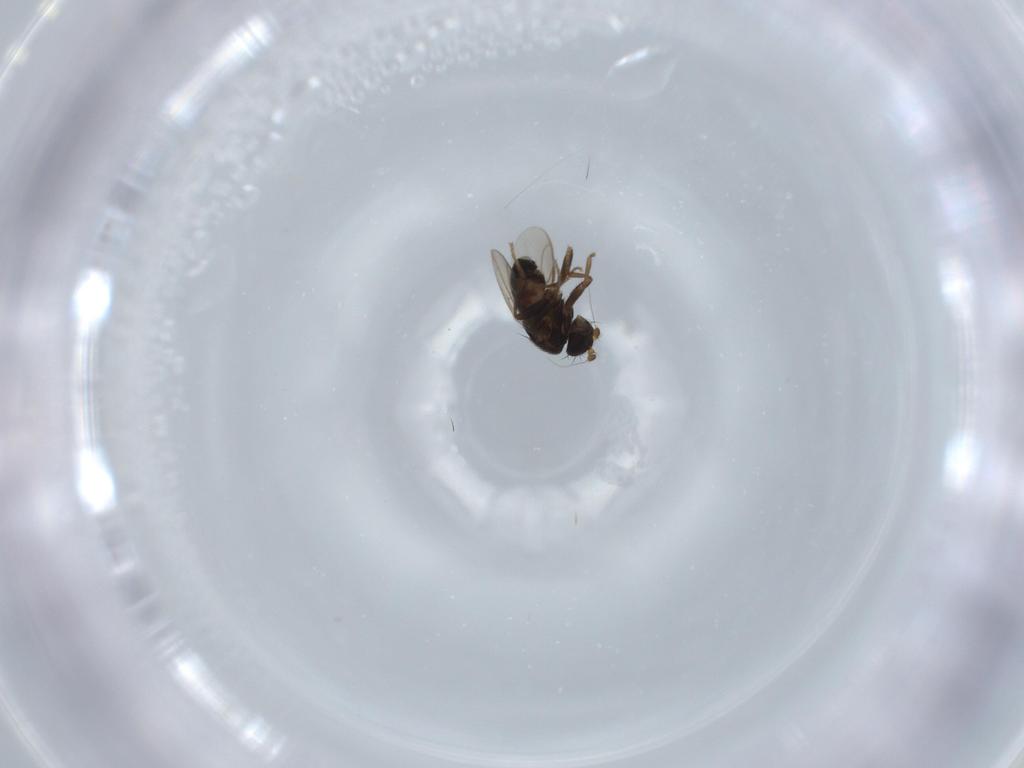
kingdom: Animalia
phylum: Arthropoda
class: Insecta
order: Diptera
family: Sphaeroceridae
